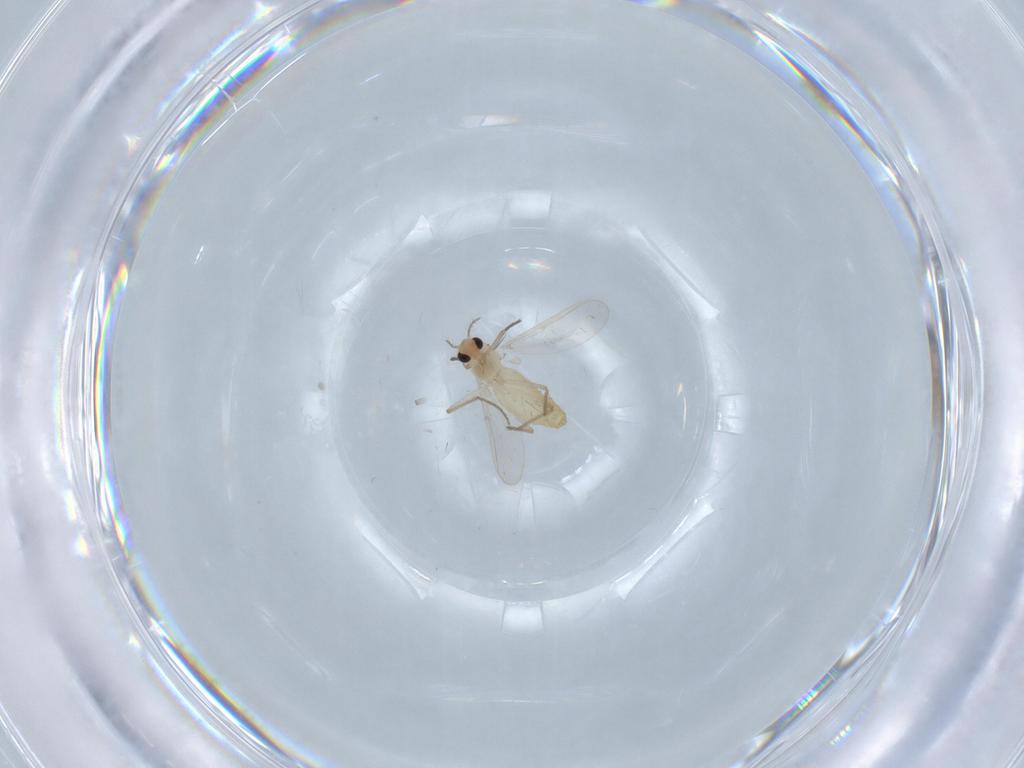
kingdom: Animalia
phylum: Arthropoda
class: Insecta
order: Diptera
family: Chironomidae
